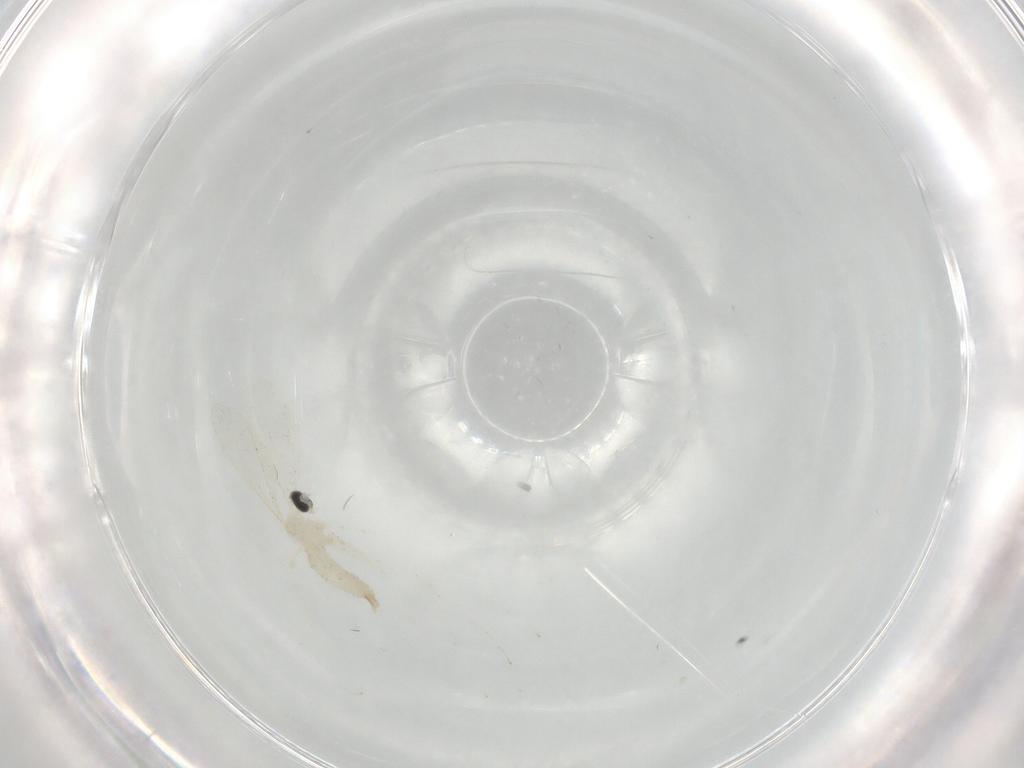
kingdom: Animalia
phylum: Arthropoda
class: Insecta
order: Diptera
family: Cecidomyiidae
